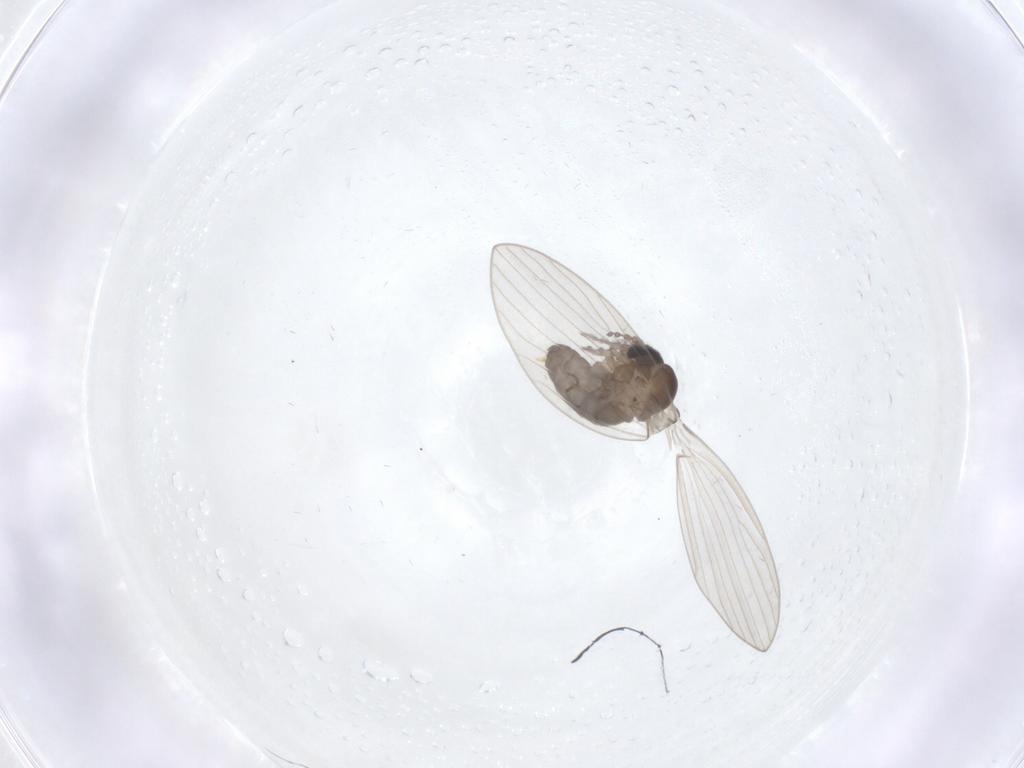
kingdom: Animalia
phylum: Arthropoda
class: Insecta
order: Diptera
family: Psychodidae
